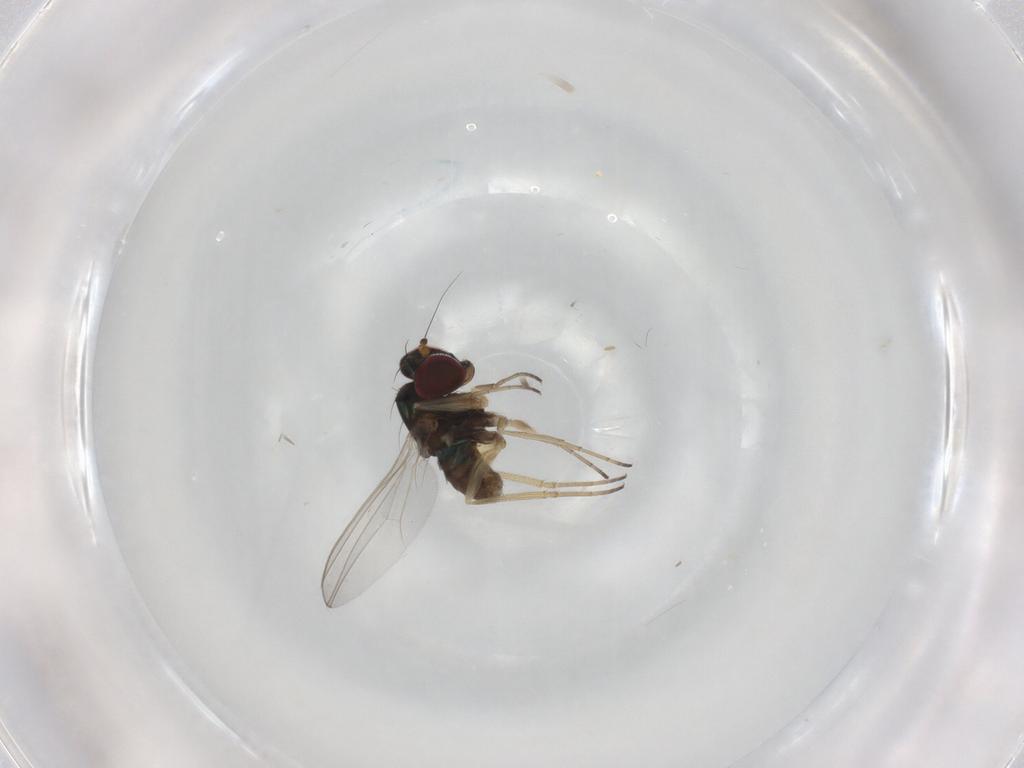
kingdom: Animalia
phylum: Arthropoda
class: Insecta
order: Diptera
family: Dolichopodidae
